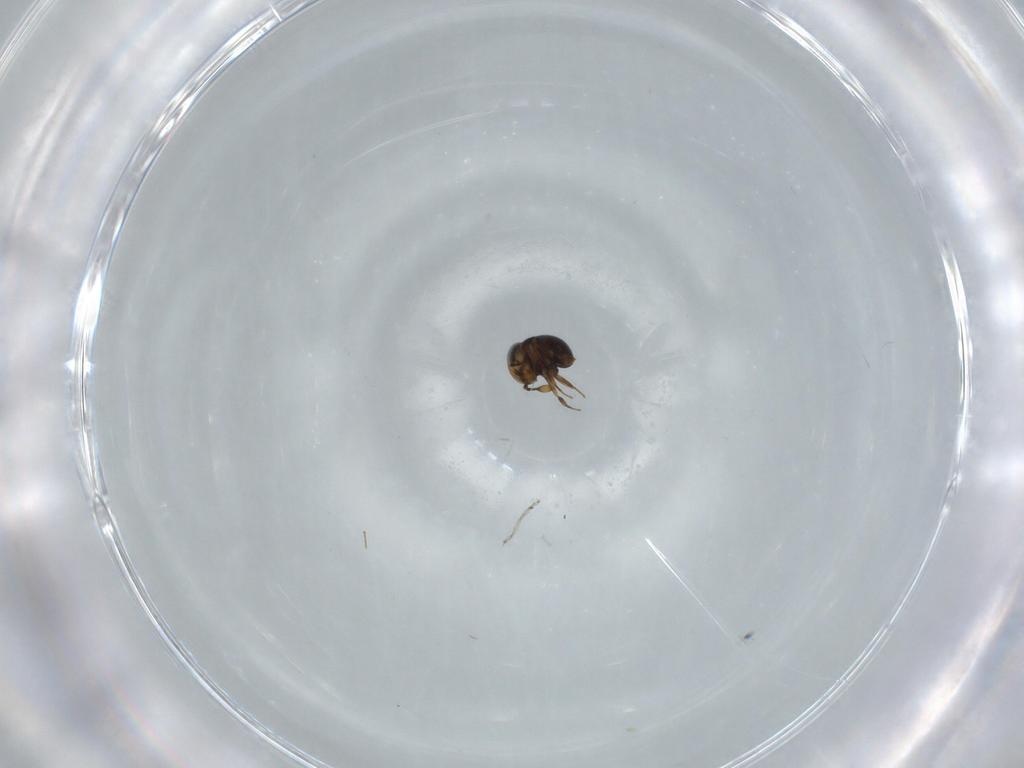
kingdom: Animalia
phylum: Arthropoda
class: Insecta
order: Hymenoptera
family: Scelionidae
